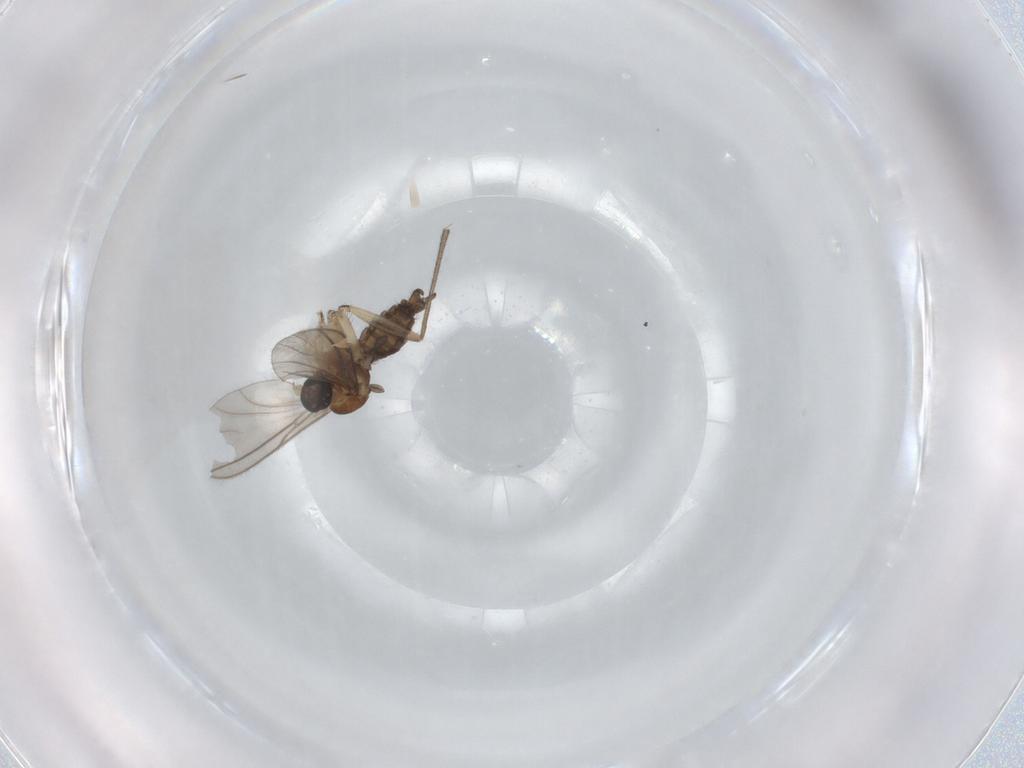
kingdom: Animalia
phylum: Arthropoda
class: Insecta
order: Diptera
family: Sciaridae
